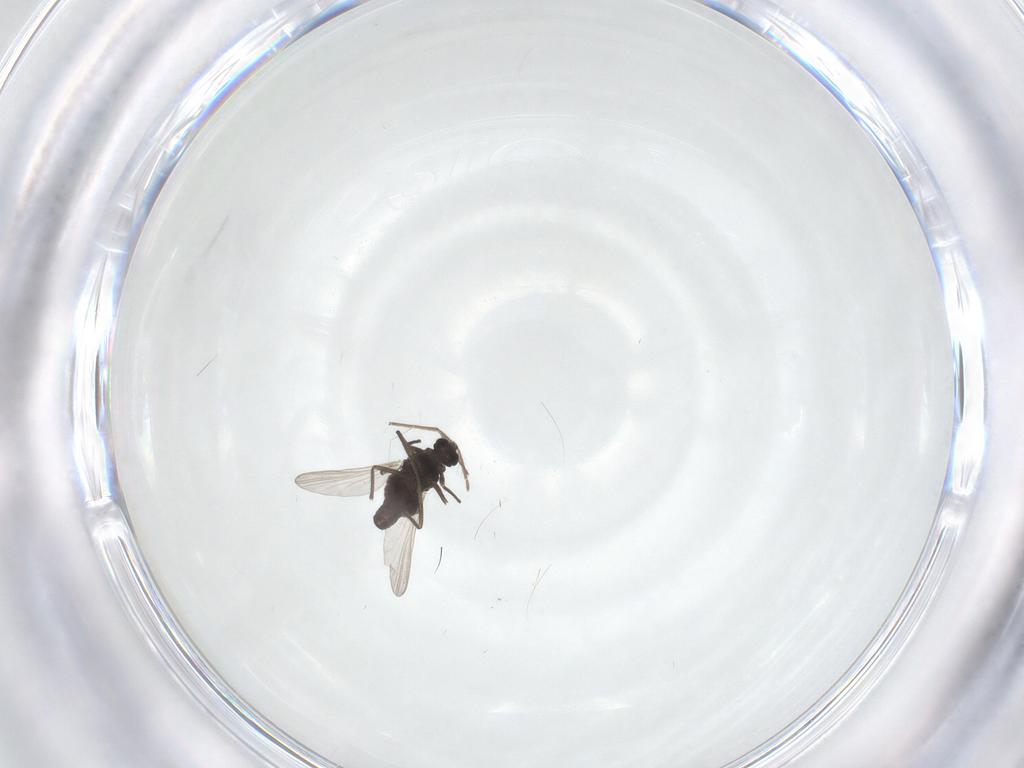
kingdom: Animalia
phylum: Arthropoda
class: Insecta
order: Diptera
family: Chironomidae
